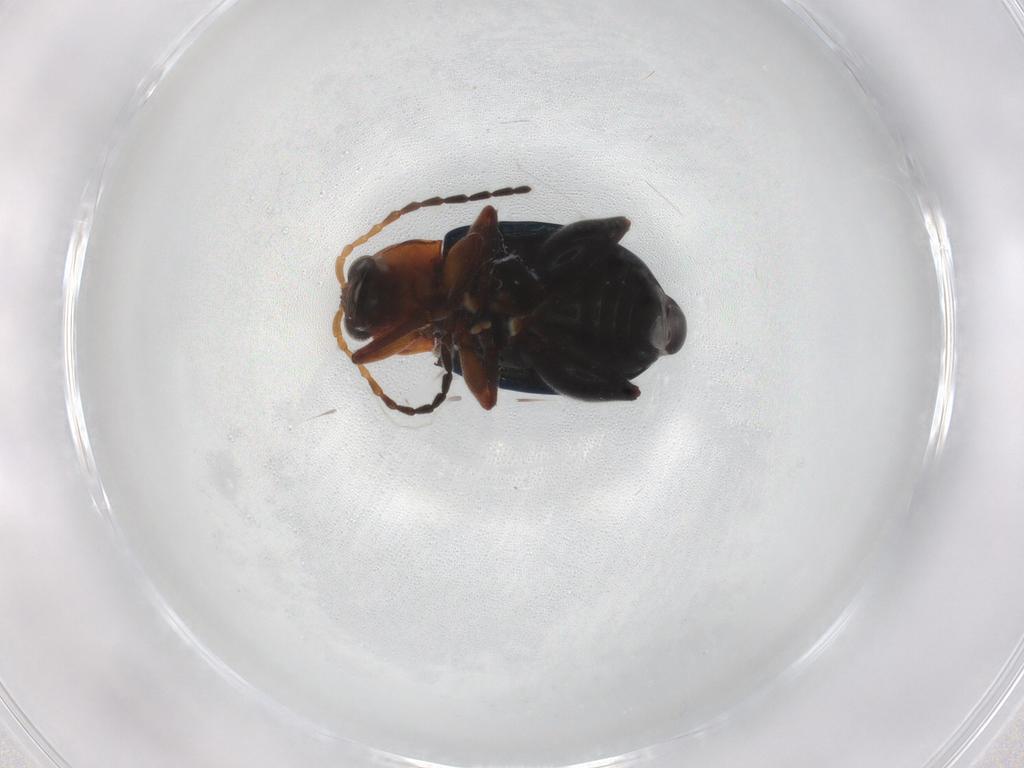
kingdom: Animalia
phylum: Arthropoda
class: Insecta
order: Coleoptera
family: Chrysomelidae
